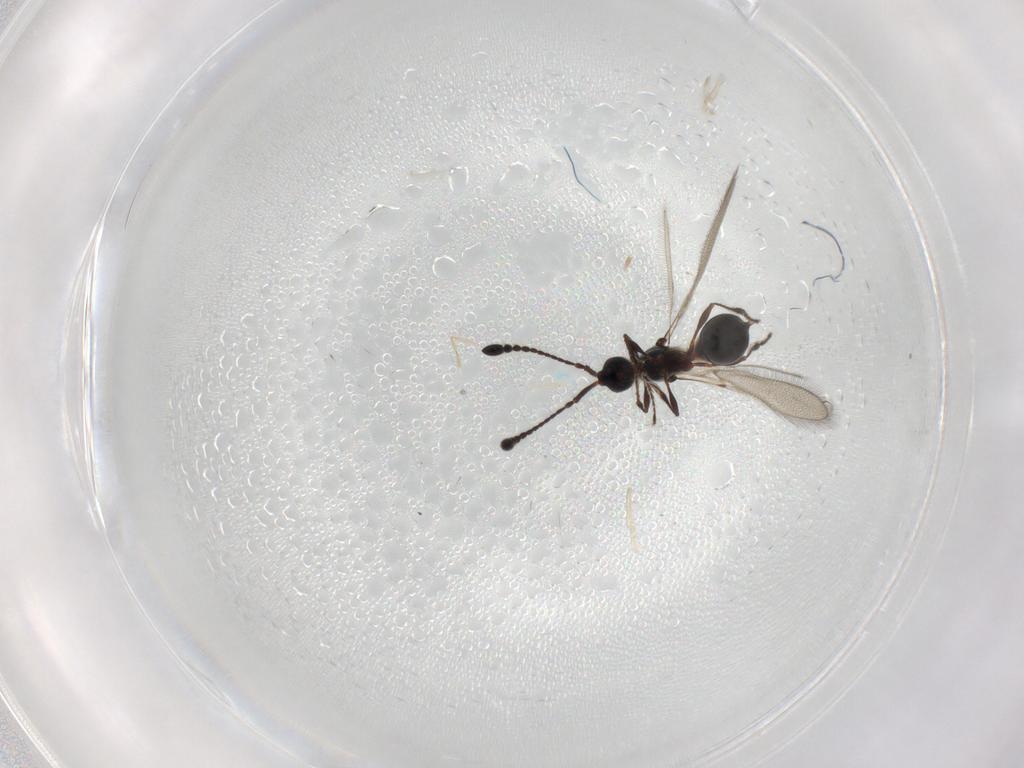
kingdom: Animalia
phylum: Arthropoda
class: Insecta
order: Hymenoptera
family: Diapriidae
